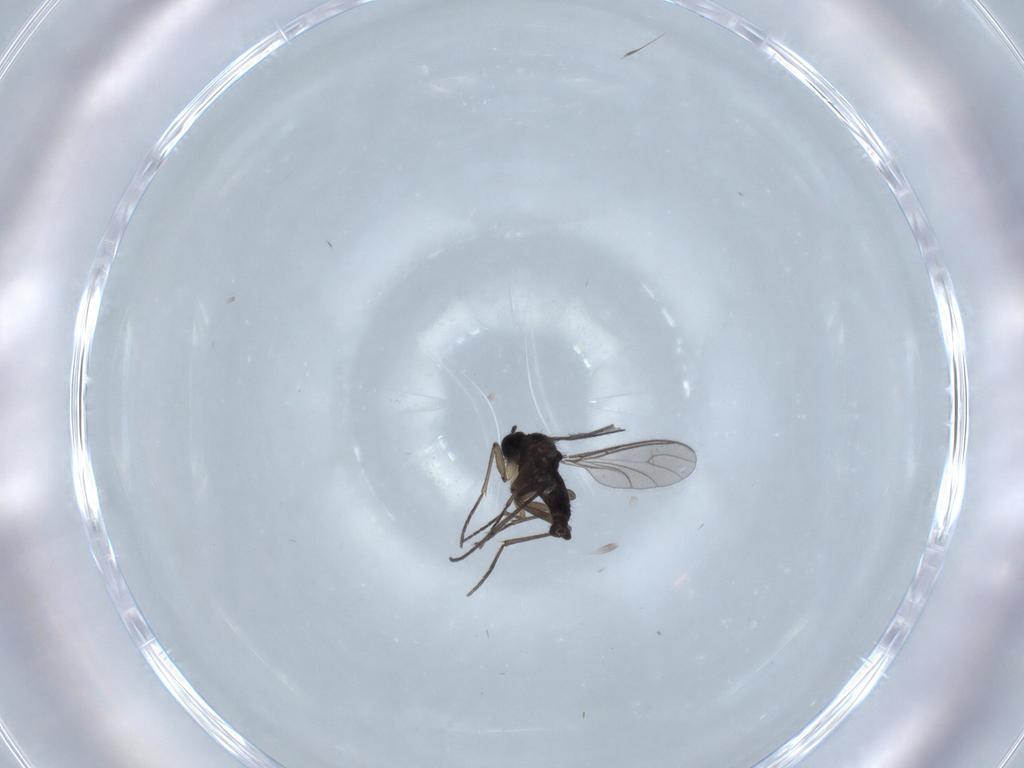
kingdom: Animalia
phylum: Arthropoda
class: Insecta
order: Diptera
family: Sciaridae
